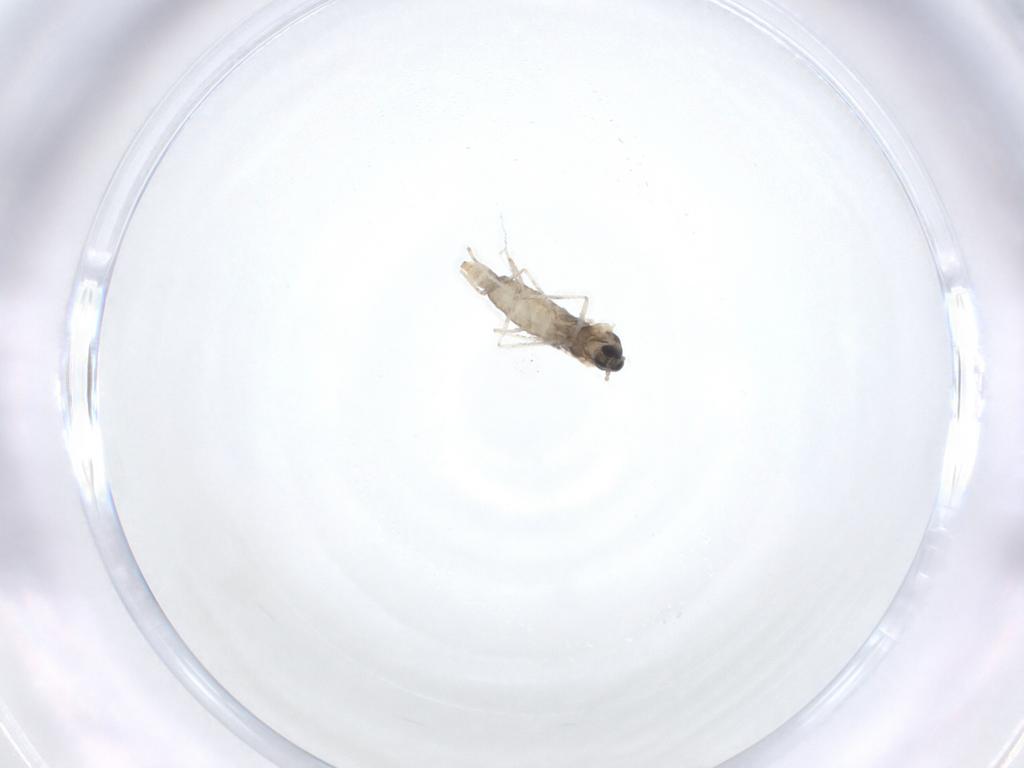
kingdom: Animalia
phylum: Arthropoda
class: Insecta
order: Diptera
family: Cecidomyiidae
